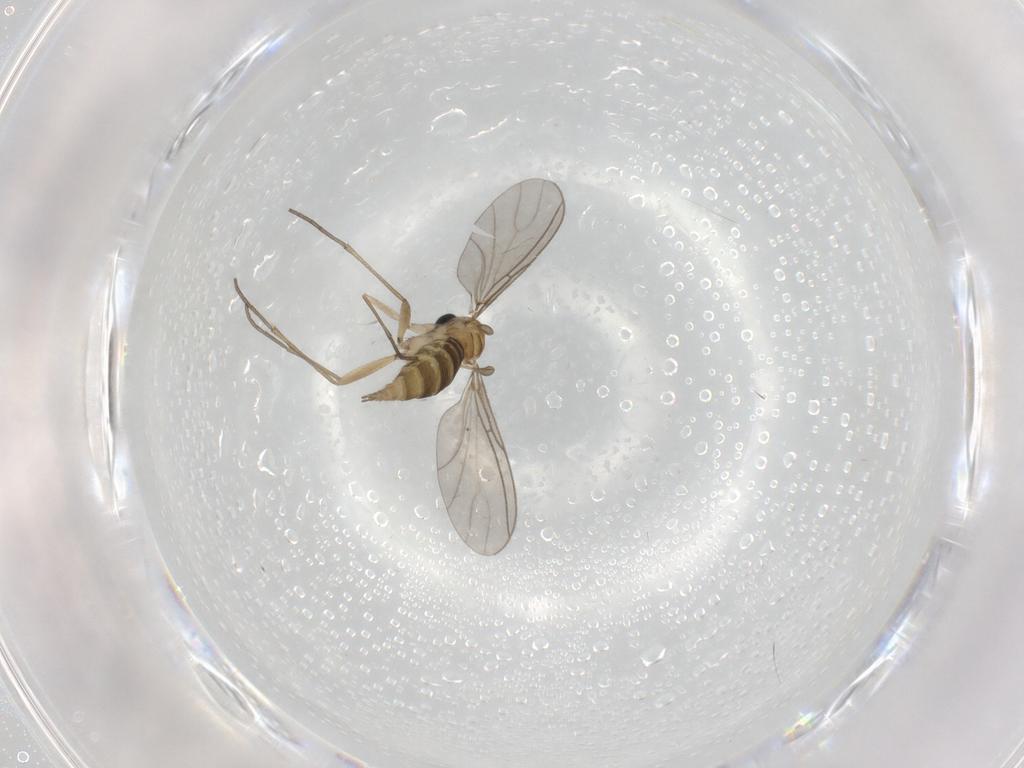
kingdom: Animalia
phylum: Arthropoda
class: Insecta
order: Diptera
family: Sciaridae
